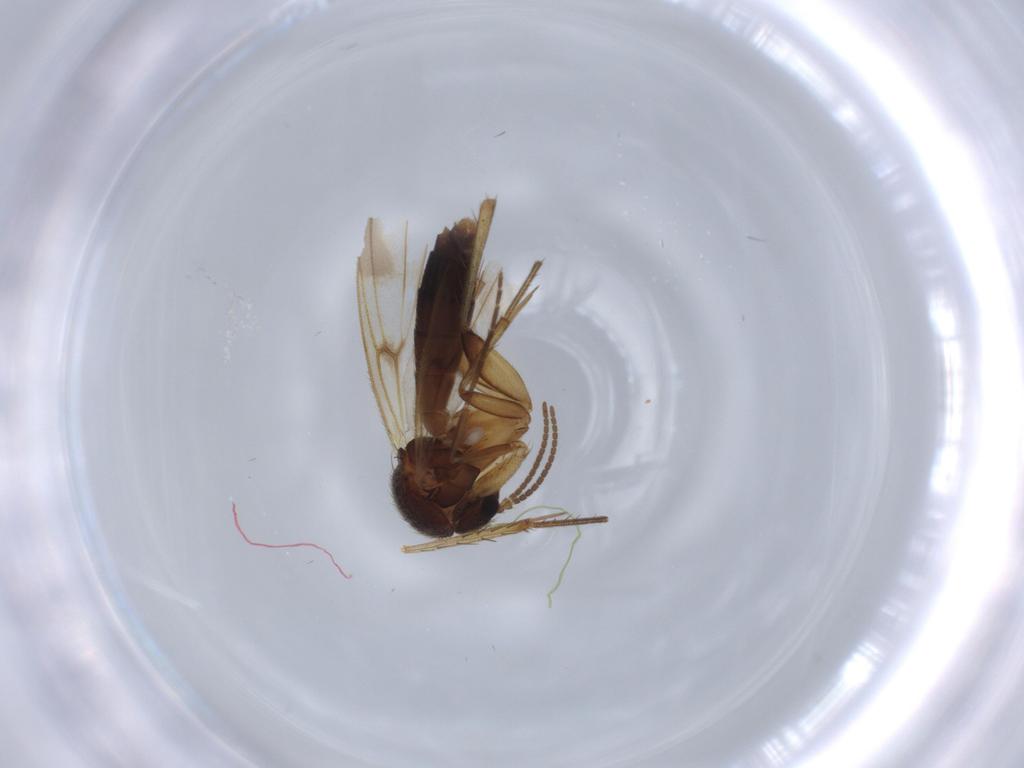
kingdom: Animalia
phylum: Arthropoda
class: Insecta
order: Diptera
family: Mycetophilidae
